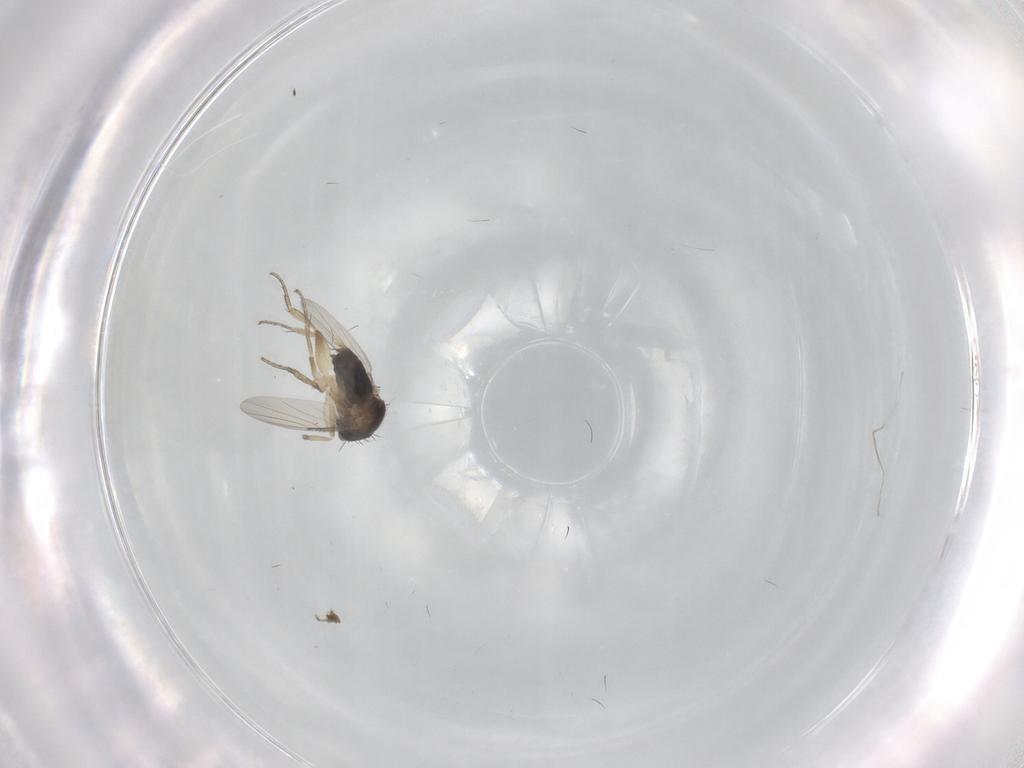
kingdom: Animalia
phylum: Arthropoda
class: Insecta
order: Diptera
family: Phoridae
